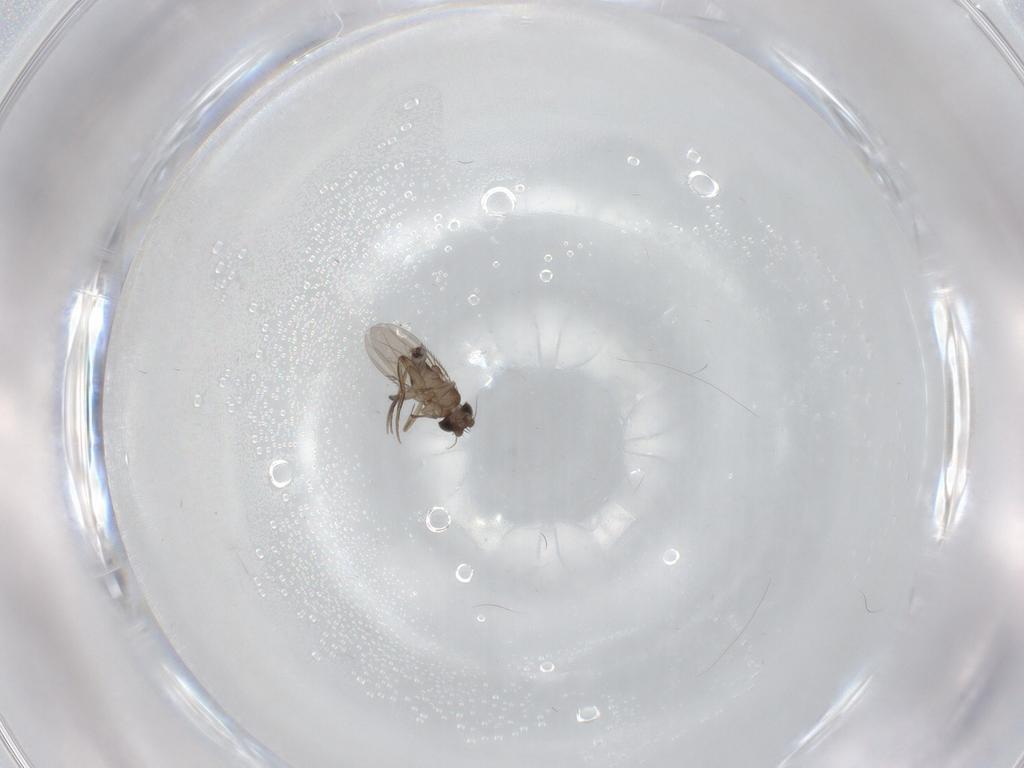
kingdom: Animalia
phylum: Arthropoda
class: Insecta
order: Diptera
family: Phoridae
